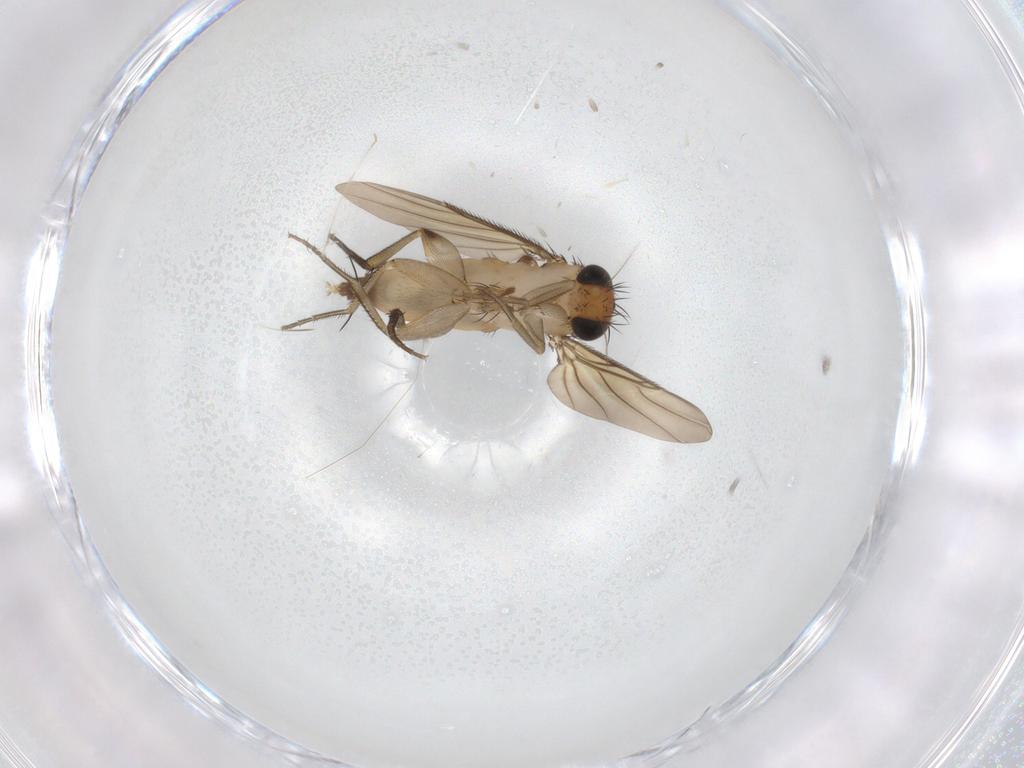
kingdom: Animalia
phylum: Arthropoda
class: Insecta
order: Diptera
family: Phoridae
